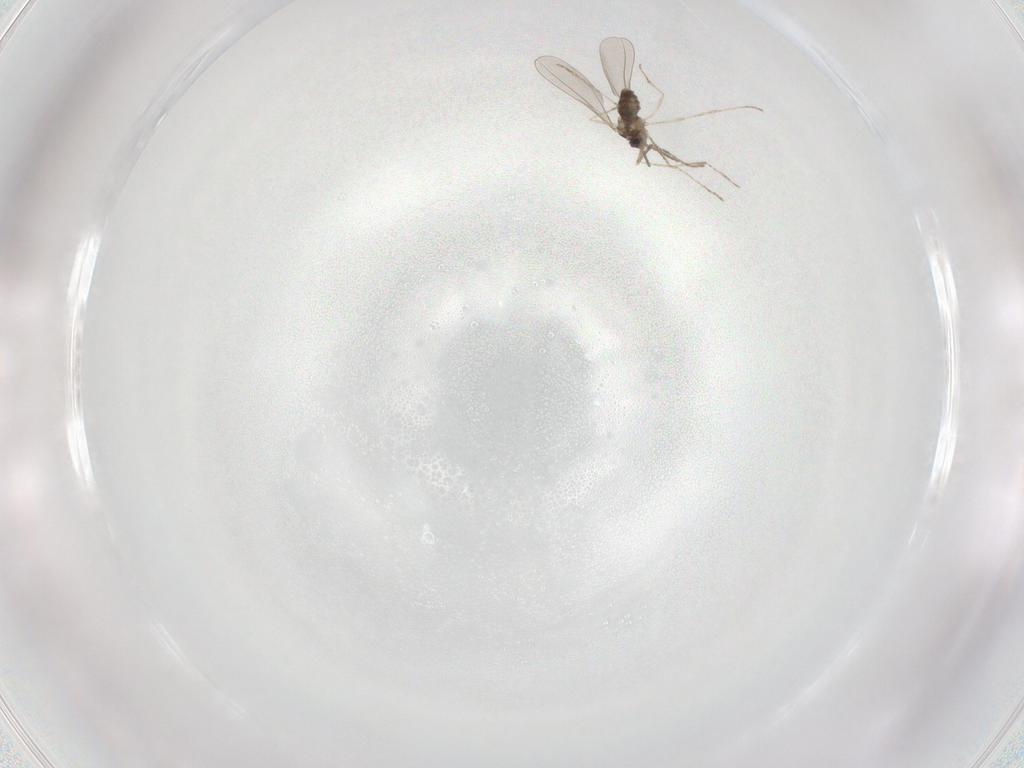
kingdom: Animalia
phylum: Arthropoda
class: Insecta
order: Diptera
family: Cecidomyiidae
